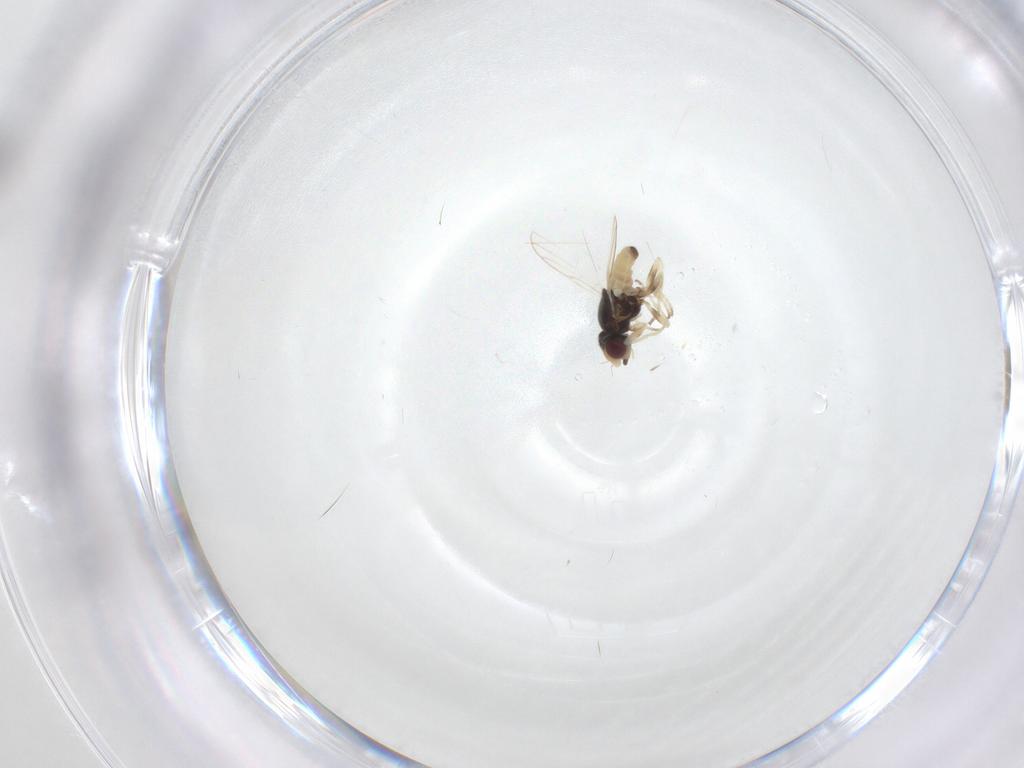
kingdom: Animalia
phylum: Arthropoda
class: Insecta
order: Diptera
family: Chloropidae
